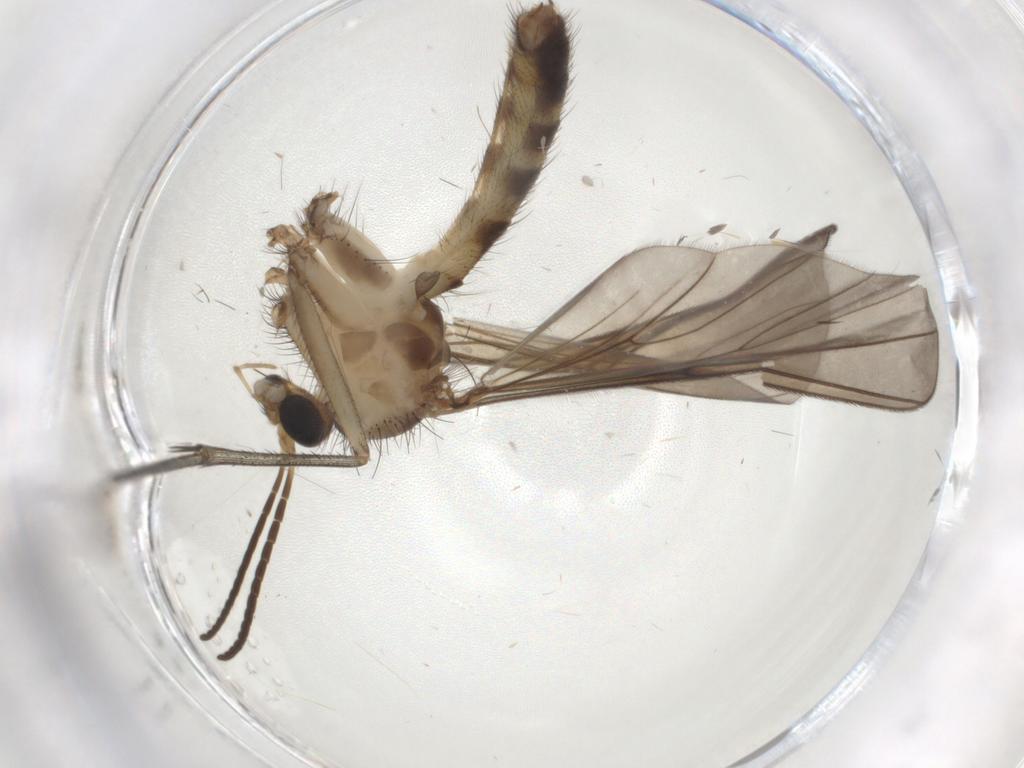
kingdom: Animalia
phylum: Arthropoda
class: Insecta
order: Diptera
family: Mycetophilidae
